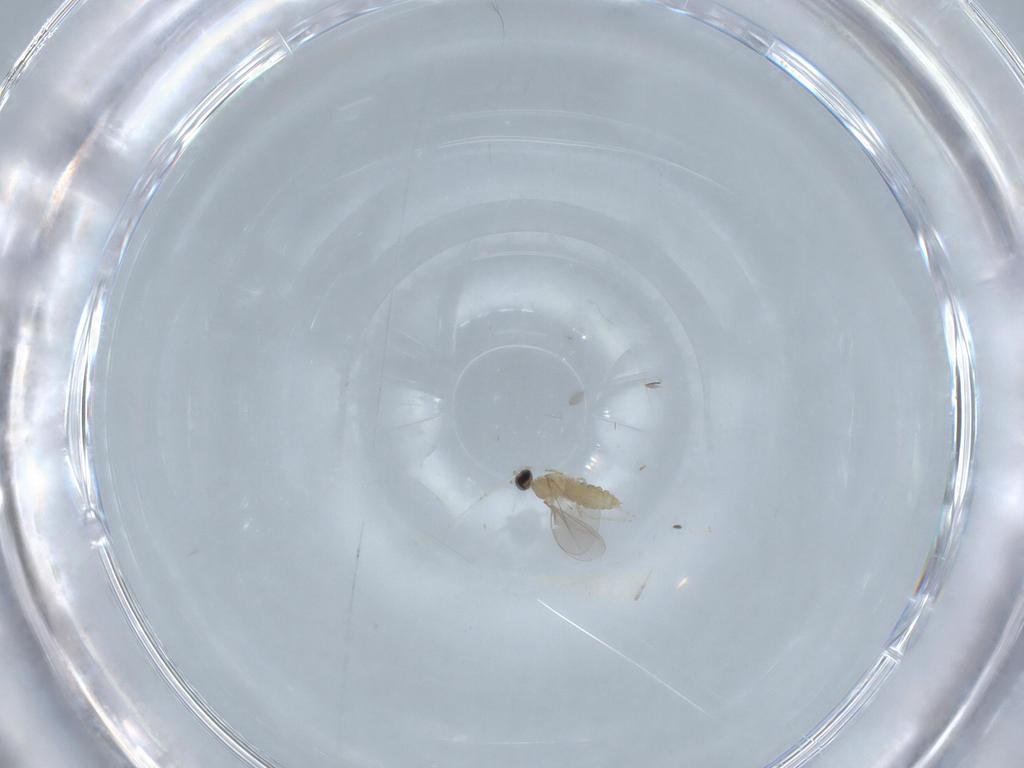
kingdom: Animalia
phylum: Arthropoda
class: Insecta
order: Diptera
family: Cecidomyiidae
